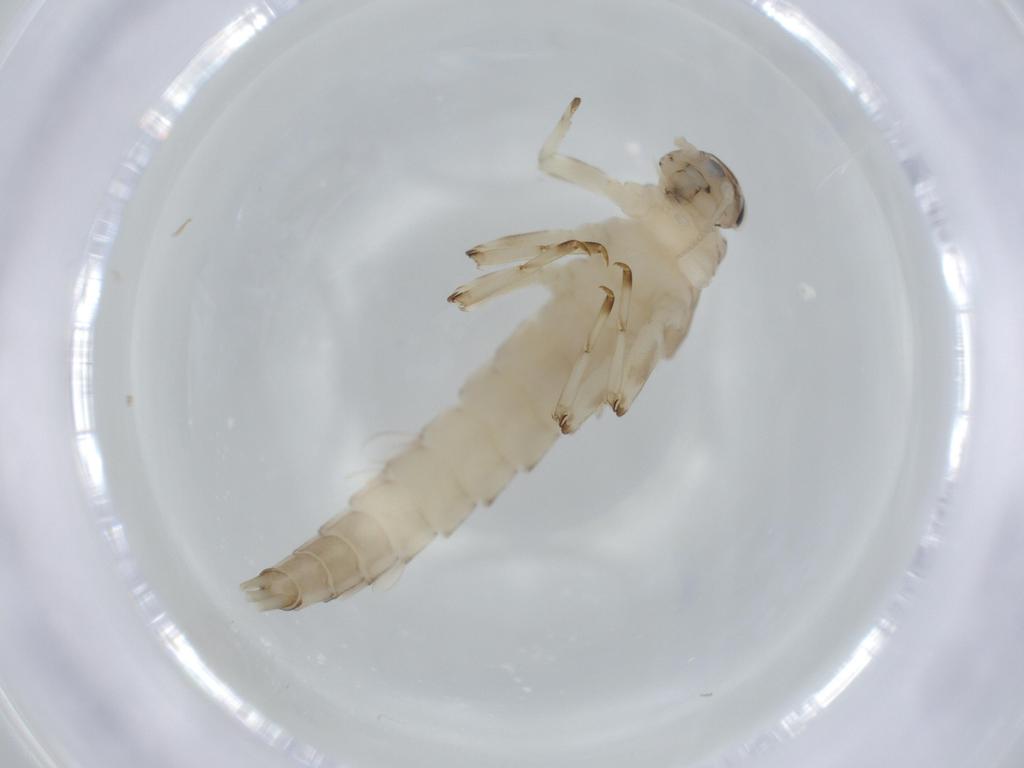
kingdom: Animalia
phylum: Arthropoda
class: Insecta
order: Ephemeroptera
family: Baetidae
